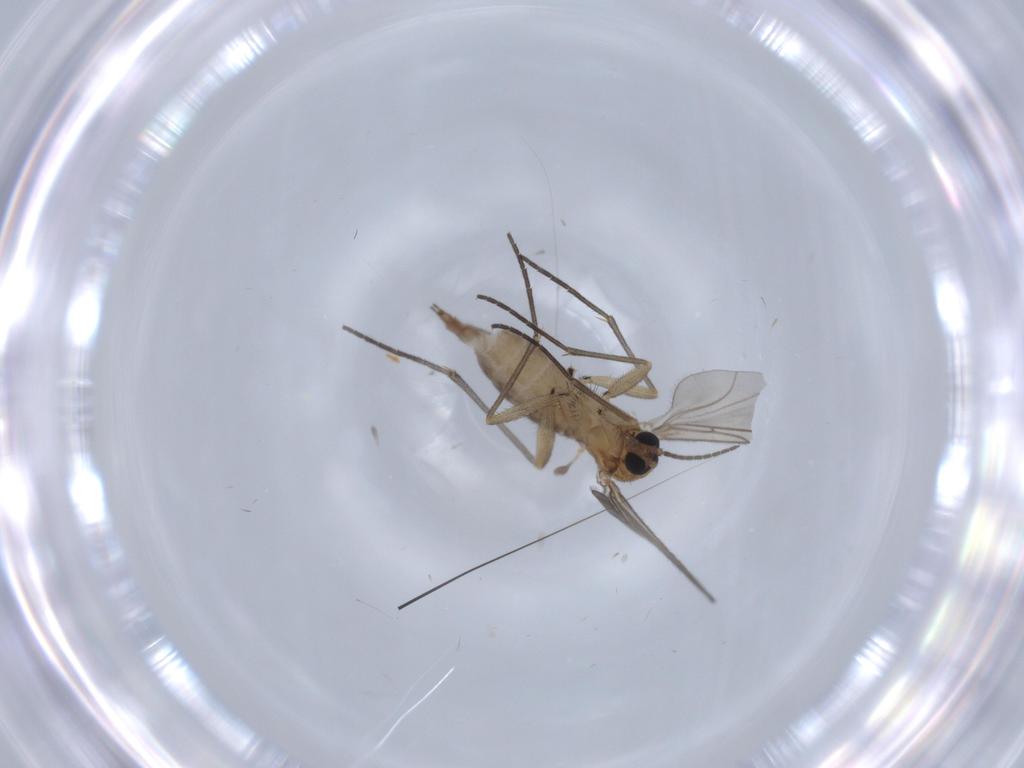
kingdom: Animalia
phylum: Arthropoda
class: Insecta
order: Diptera
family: Sciaridae
